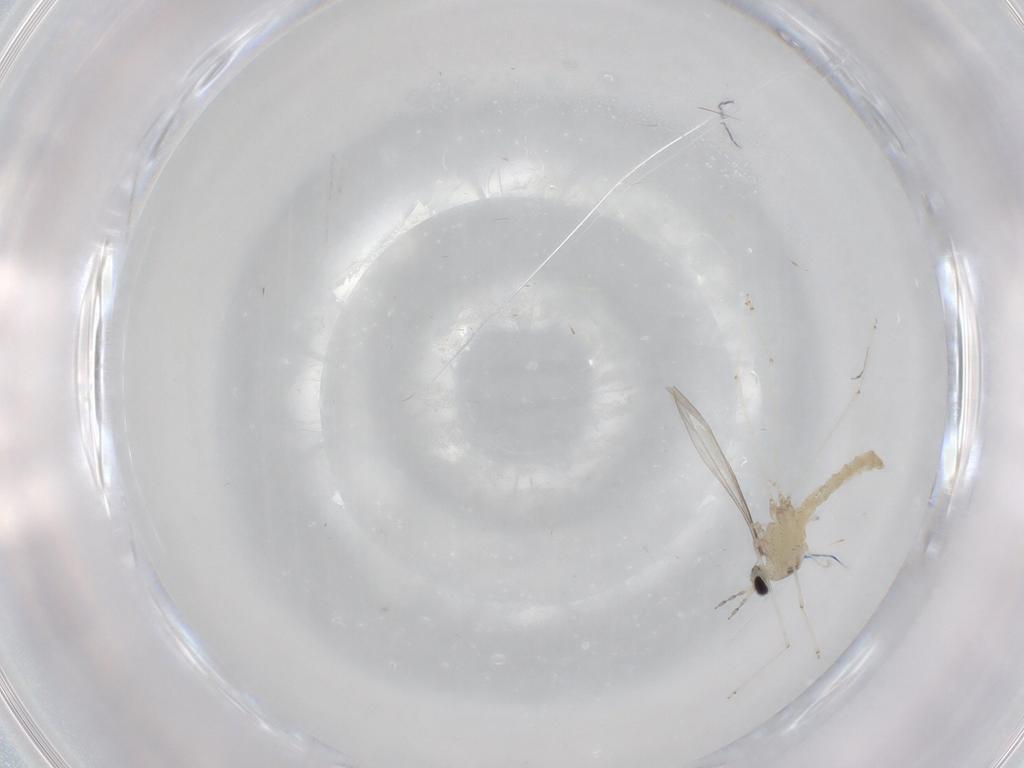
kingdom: Animalia
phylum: Arthropoda
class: Insecta
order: Diptera
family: Cecidomyiidae
